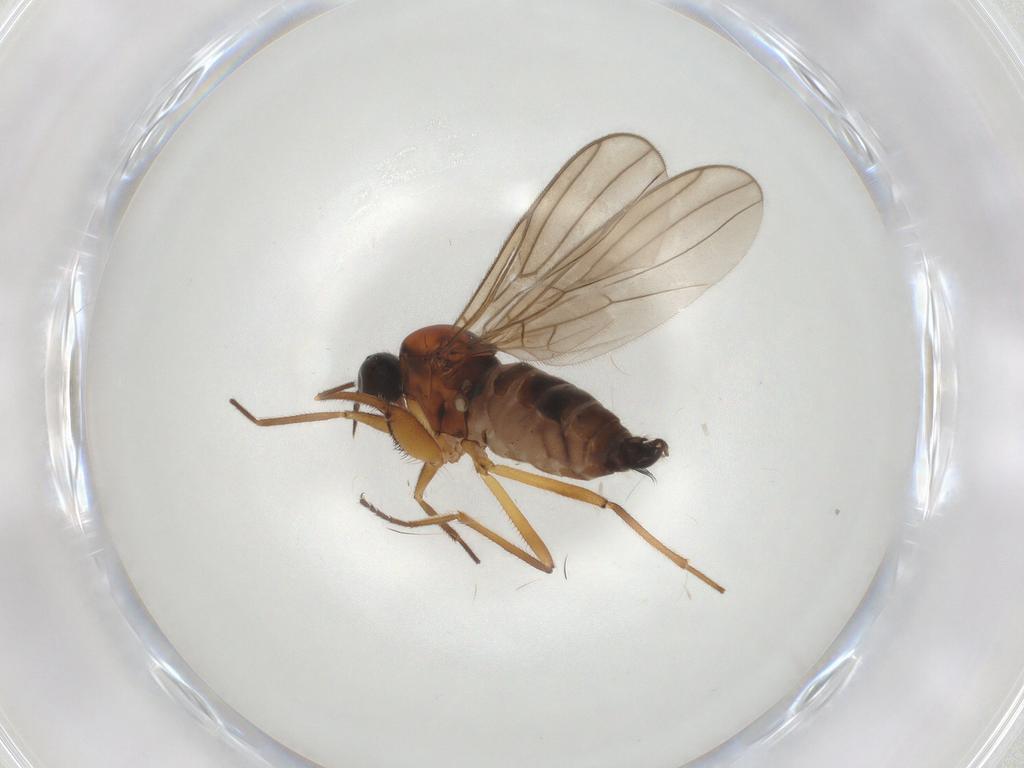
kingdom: Animalia
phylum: Arthropoda
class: Insecta
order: Diptera
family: Hybotidae
